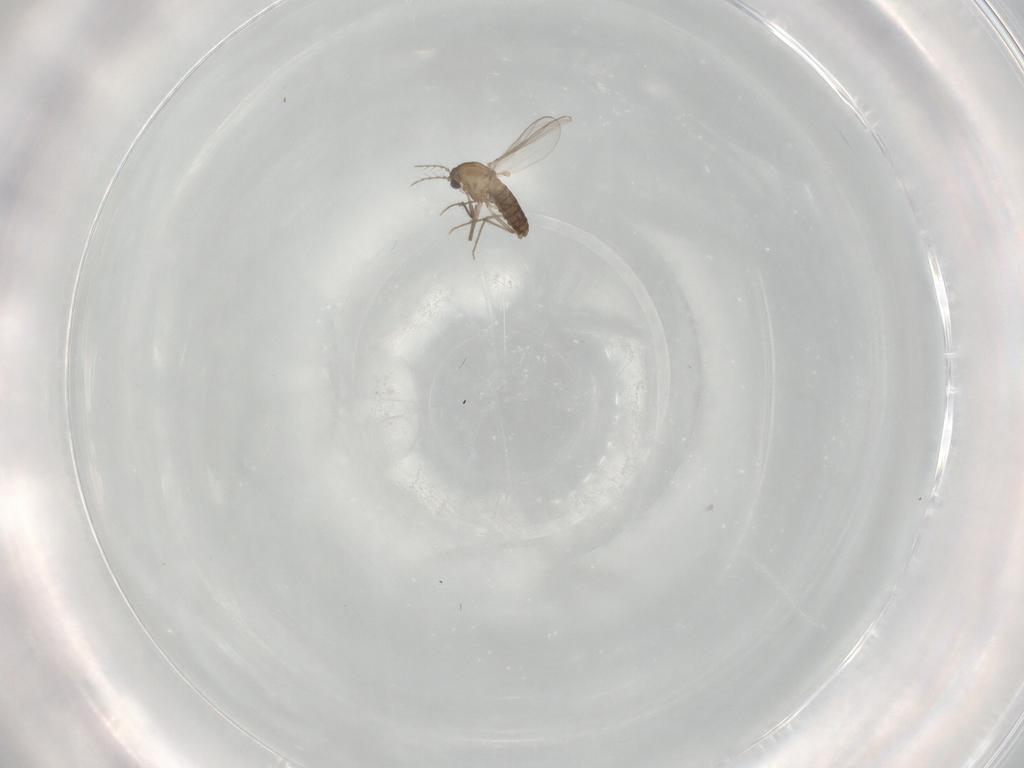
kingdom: Animalia
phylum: Arthropoda
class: Insecta
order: Diptera
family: Chironomidae
